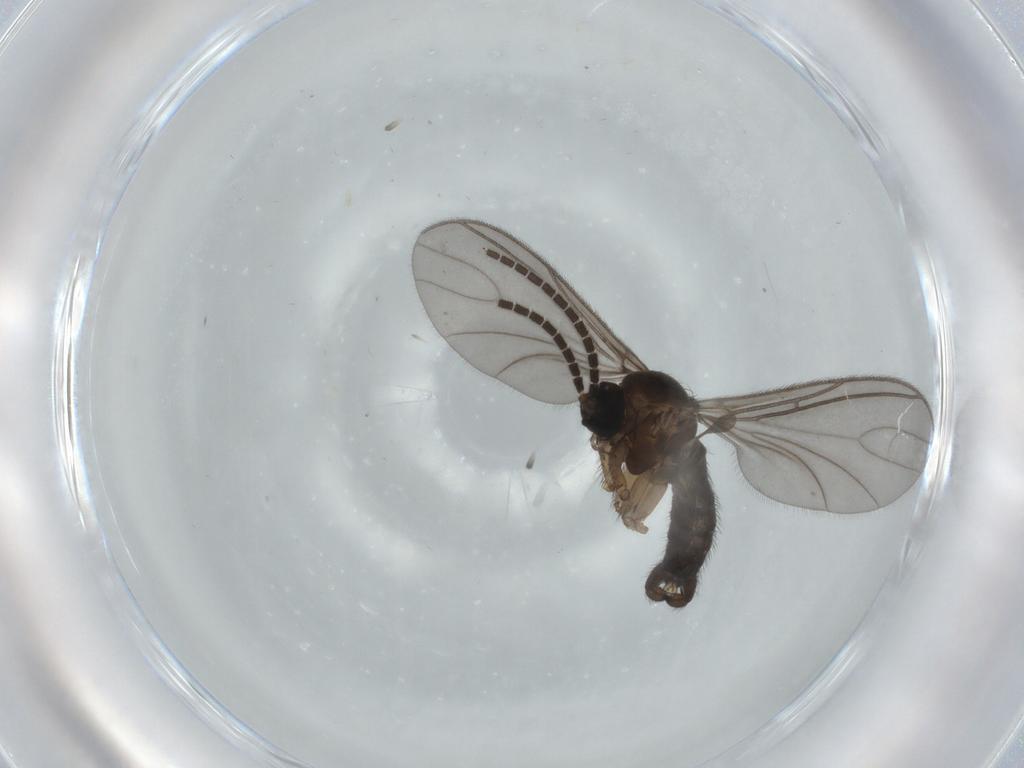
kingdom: Animalia
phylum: Arthropoda
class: Insecta
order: Diptera
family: Sciaridae
